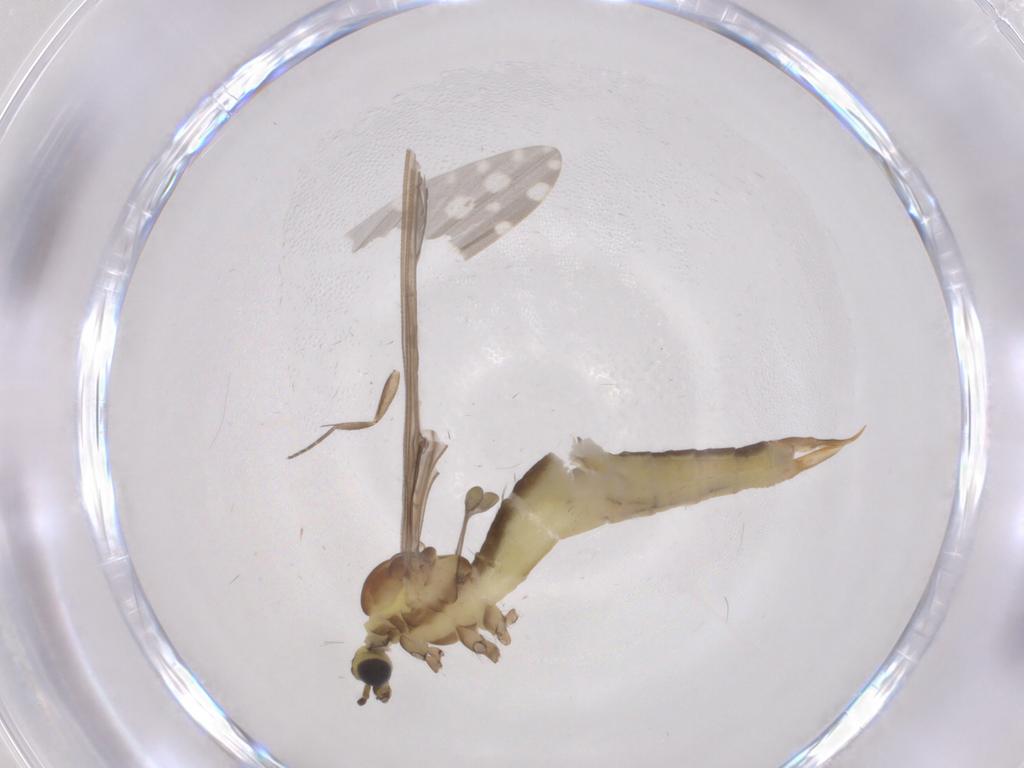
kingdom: Animalia
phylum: Arthropoda
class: Insecta
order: Diptera
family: Limoniidae
